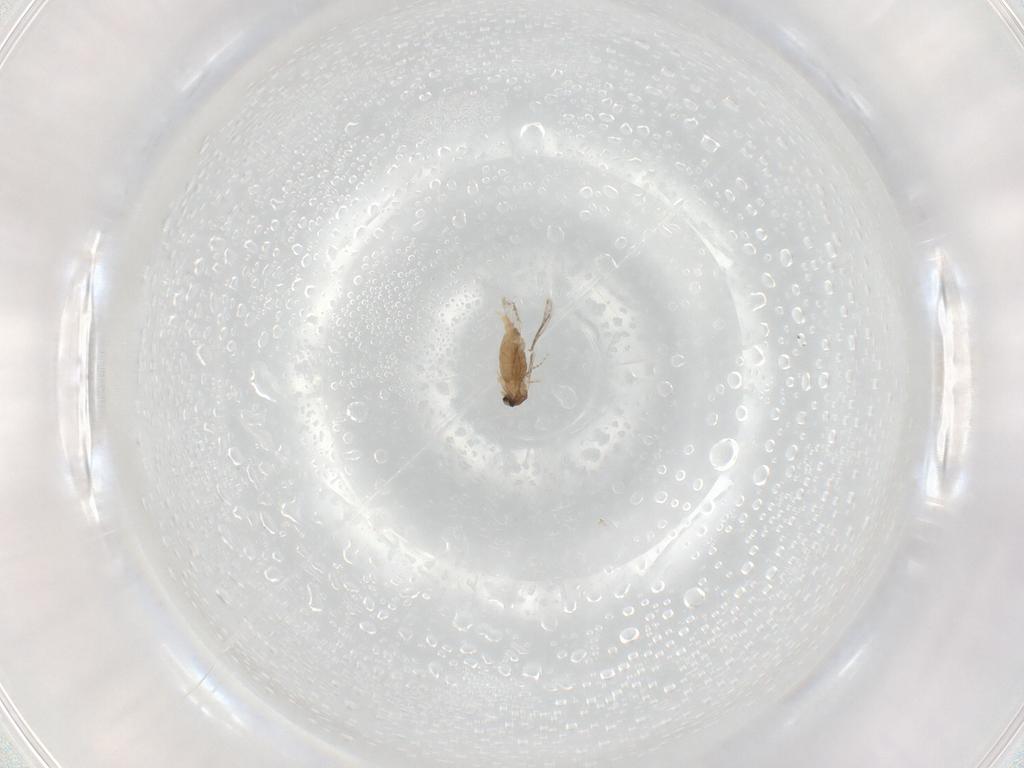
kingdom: Animalia
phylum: Arthropoda
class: Insecta
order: Diptera
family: Cecidomyiidae
